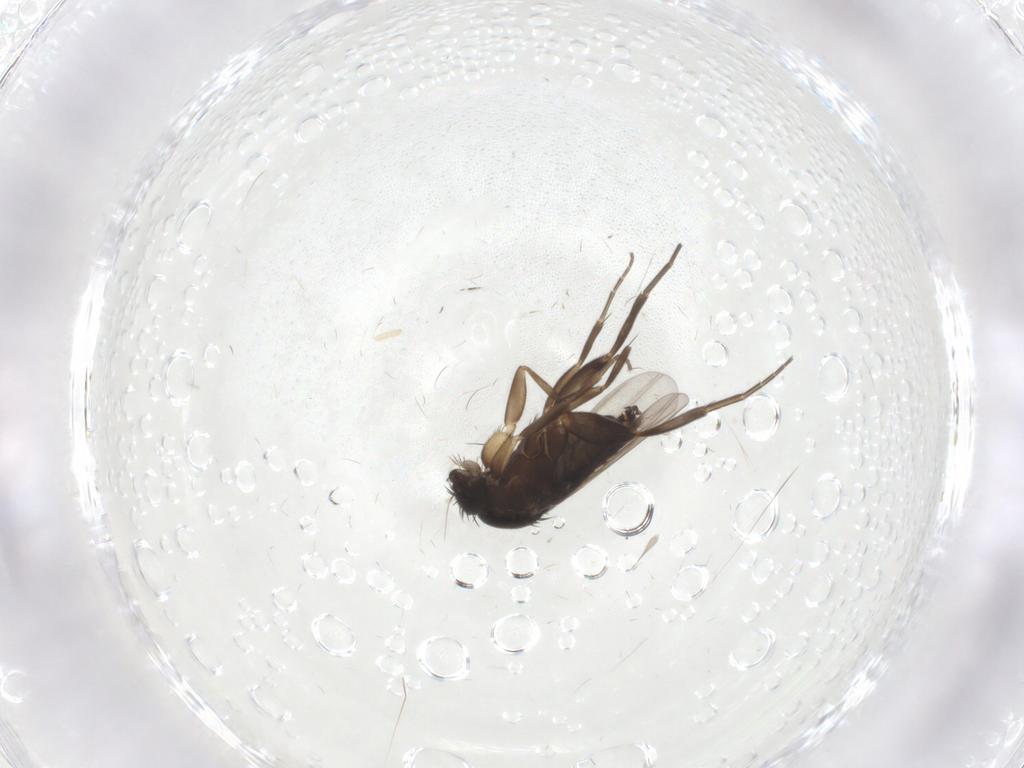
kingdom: Animalia
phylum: Arthropoda
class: Insecta
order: Diptera
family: Phoridae
